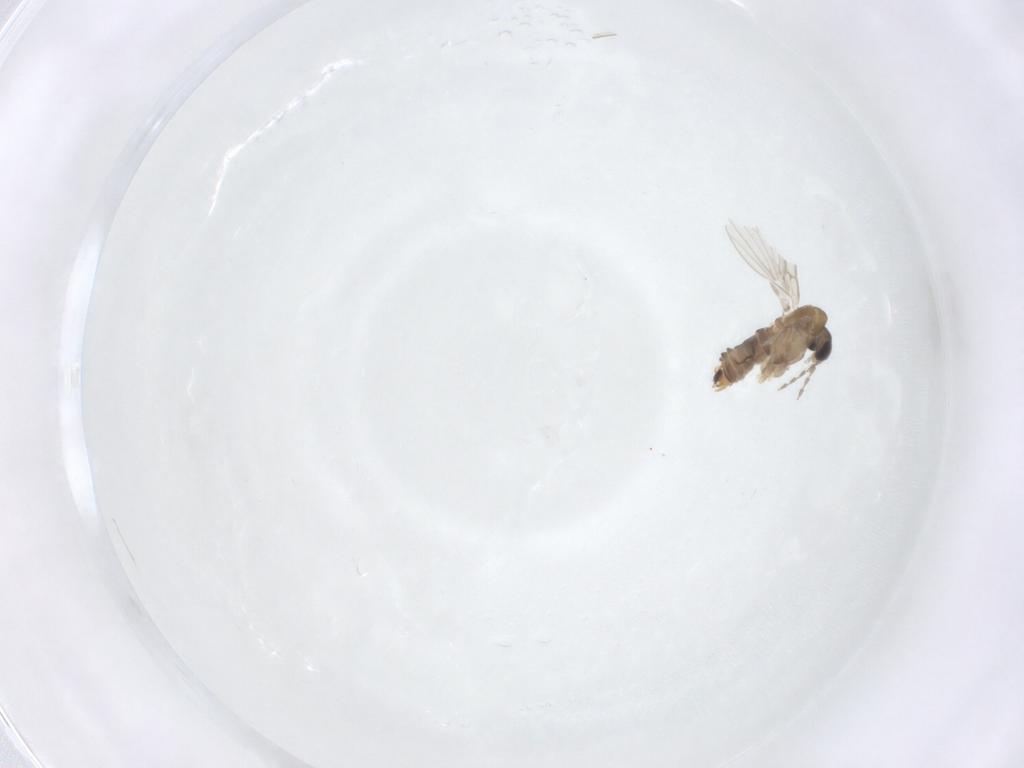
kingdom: Animalia
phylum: Arthropoda
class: Insecta
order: Diptera
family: Psychodidae
